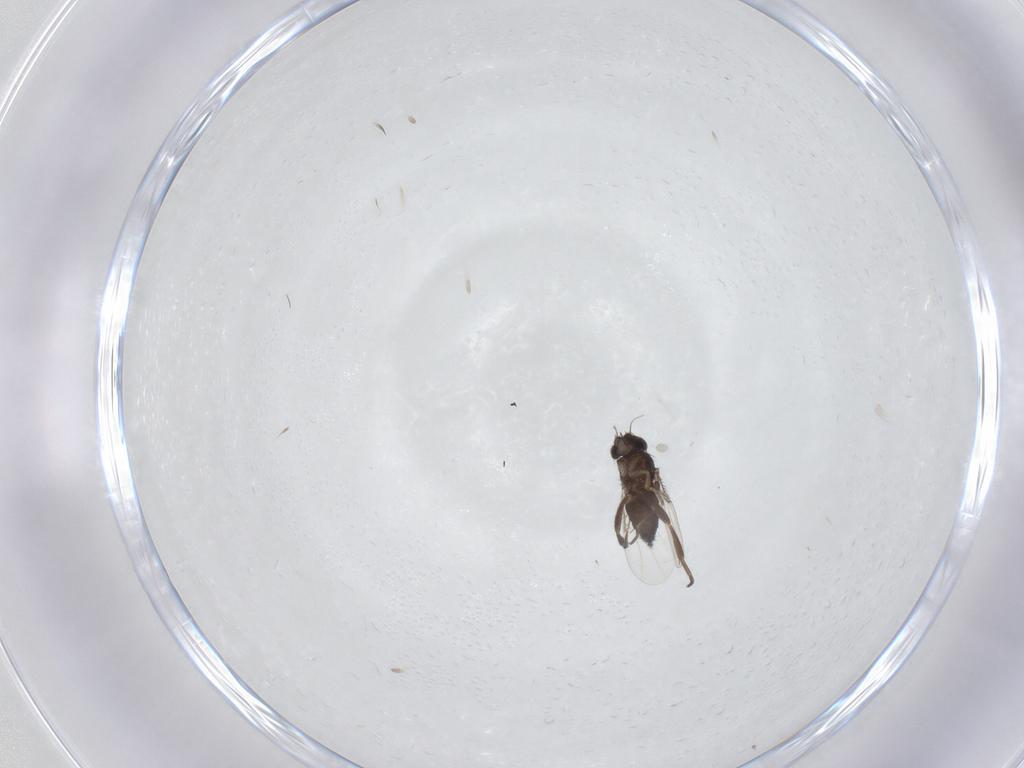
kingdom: Animalia
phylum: Arthropoda
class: Insecta
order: Diptera
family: Phoridae
